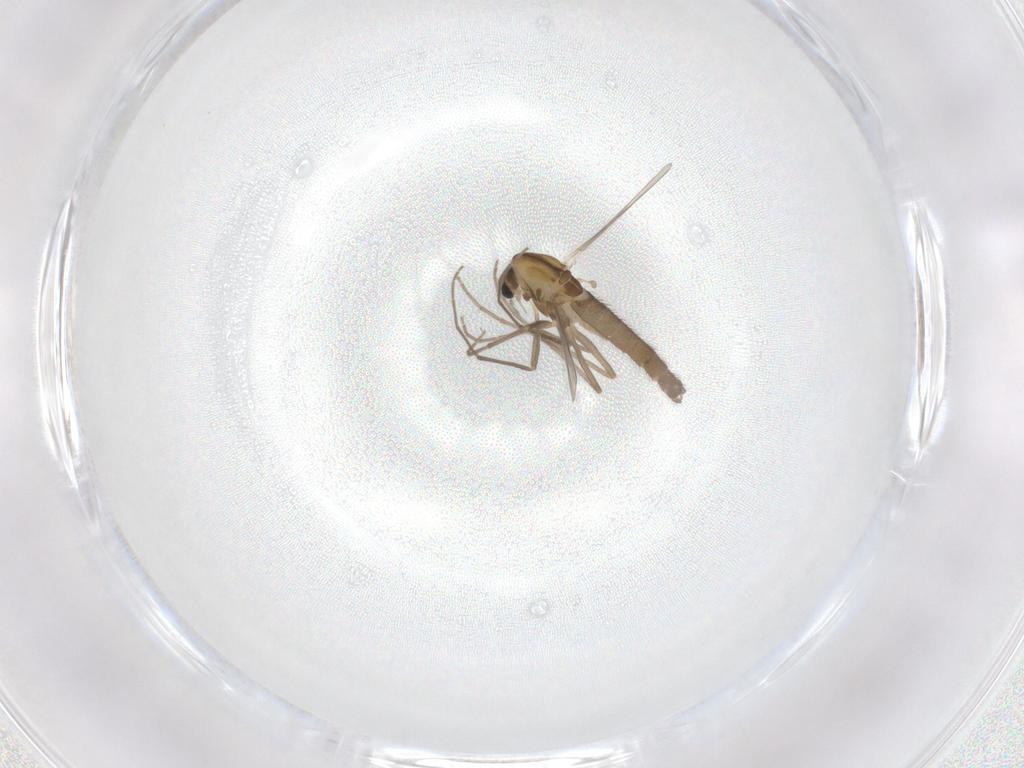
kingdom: Animalia
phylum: Arthropoda
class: Insecta
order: Diptera
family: Chironomidae
